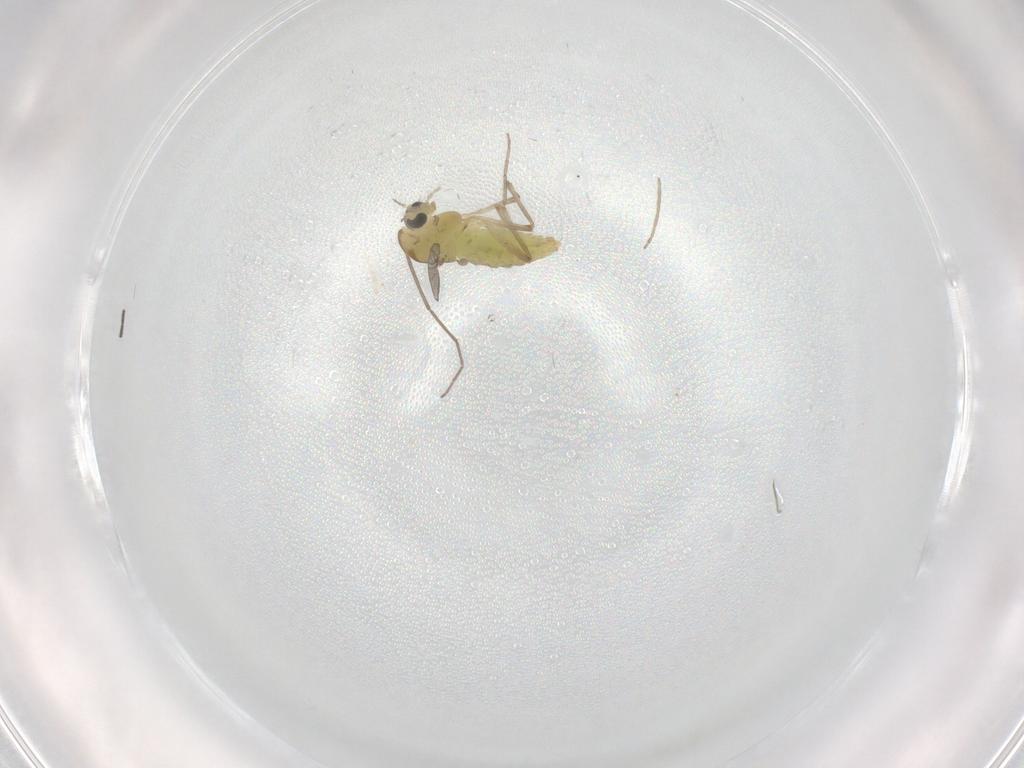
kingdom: Animalia
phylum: Arthropoda
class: Insecta
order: Diptera
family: Chironomidae
